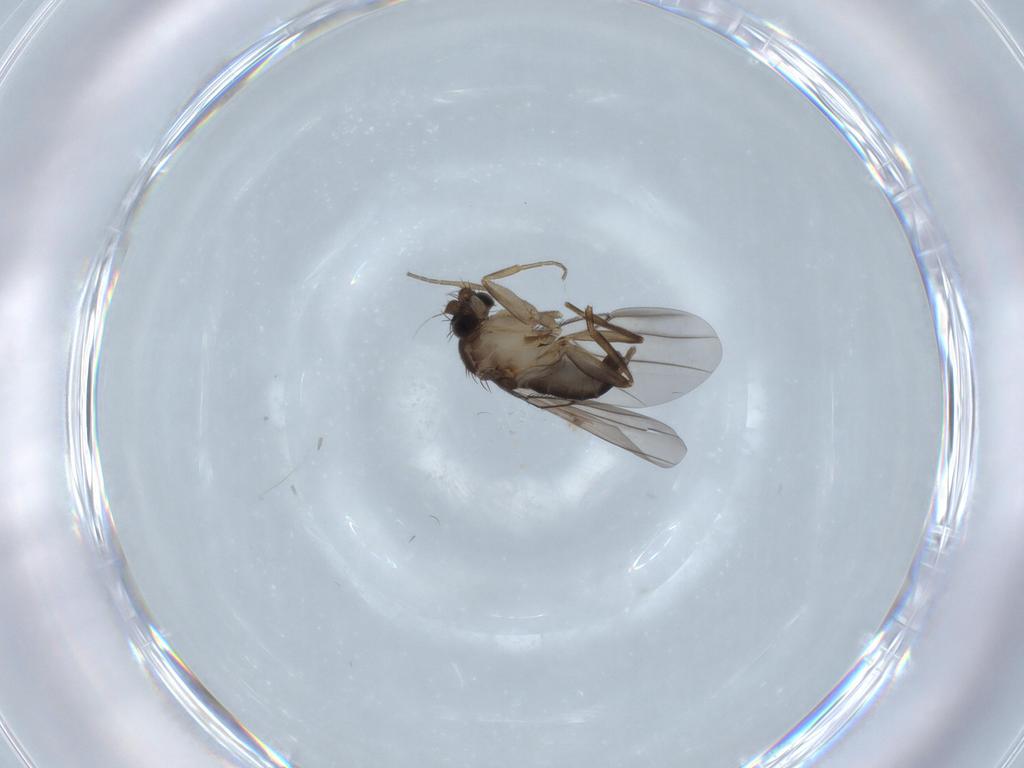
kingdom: Animalia
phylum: Arthropoda
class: Insecta
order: Diptera
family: Phoridae
